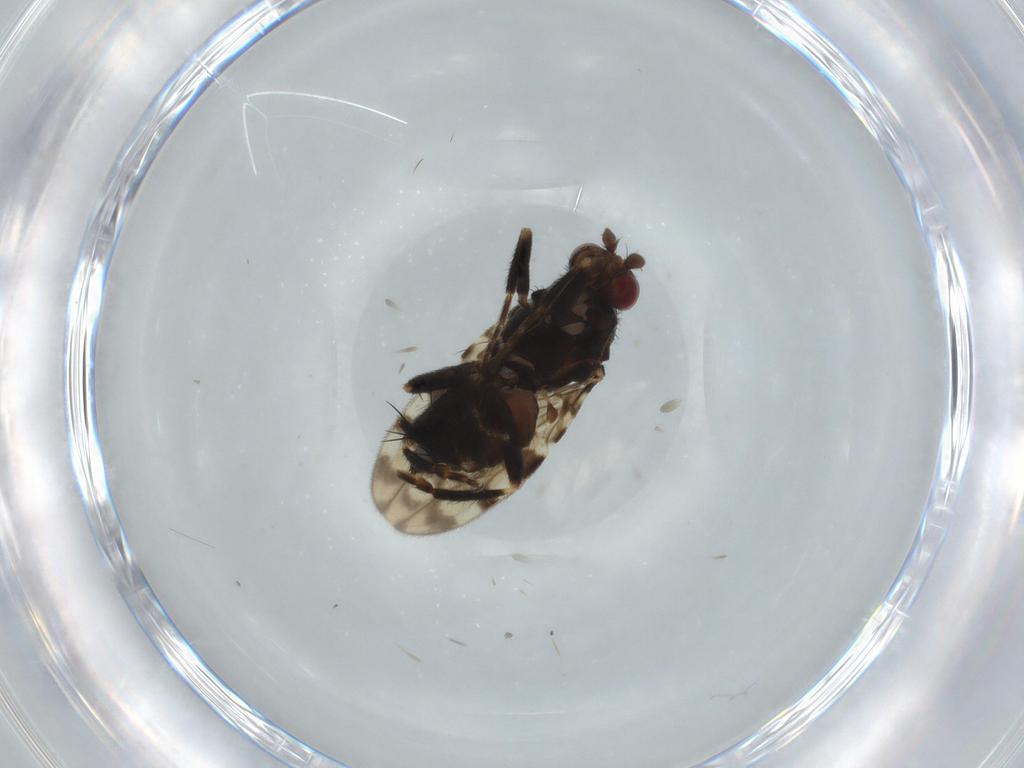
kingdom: Animalia
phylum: Arthropoda
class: Insecta
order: Diptera
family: Sphaeroceridae
